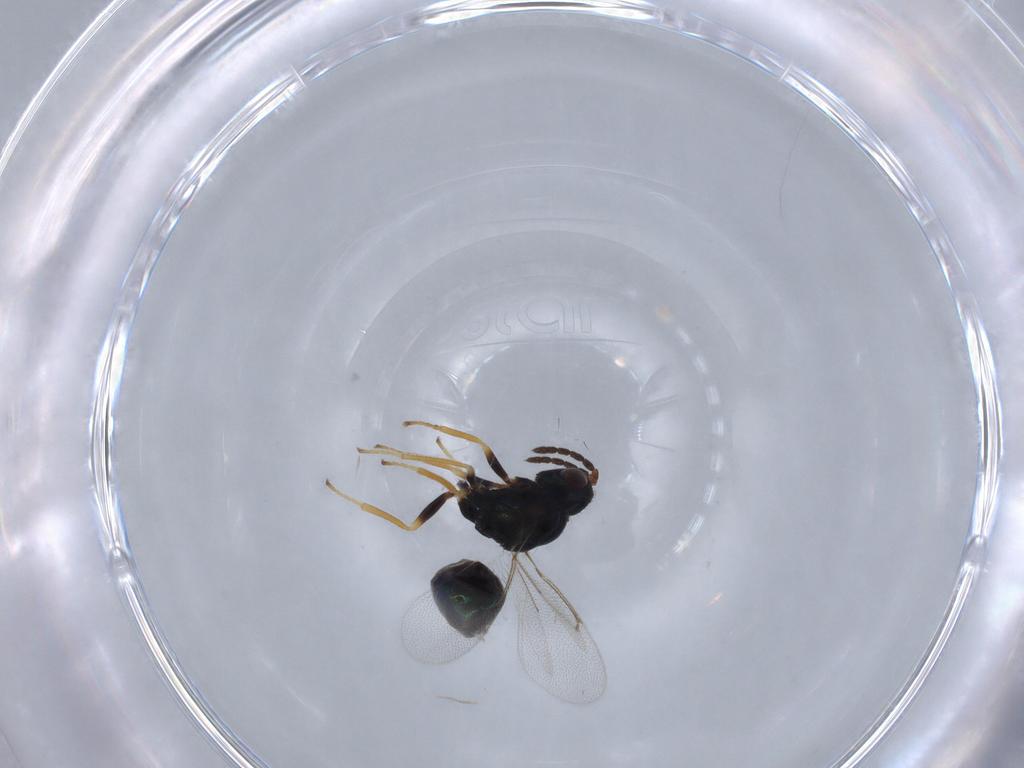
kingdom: Animalia
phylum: Arthropoda
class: Insecta
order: Hymenoptera
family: Eulophidae
